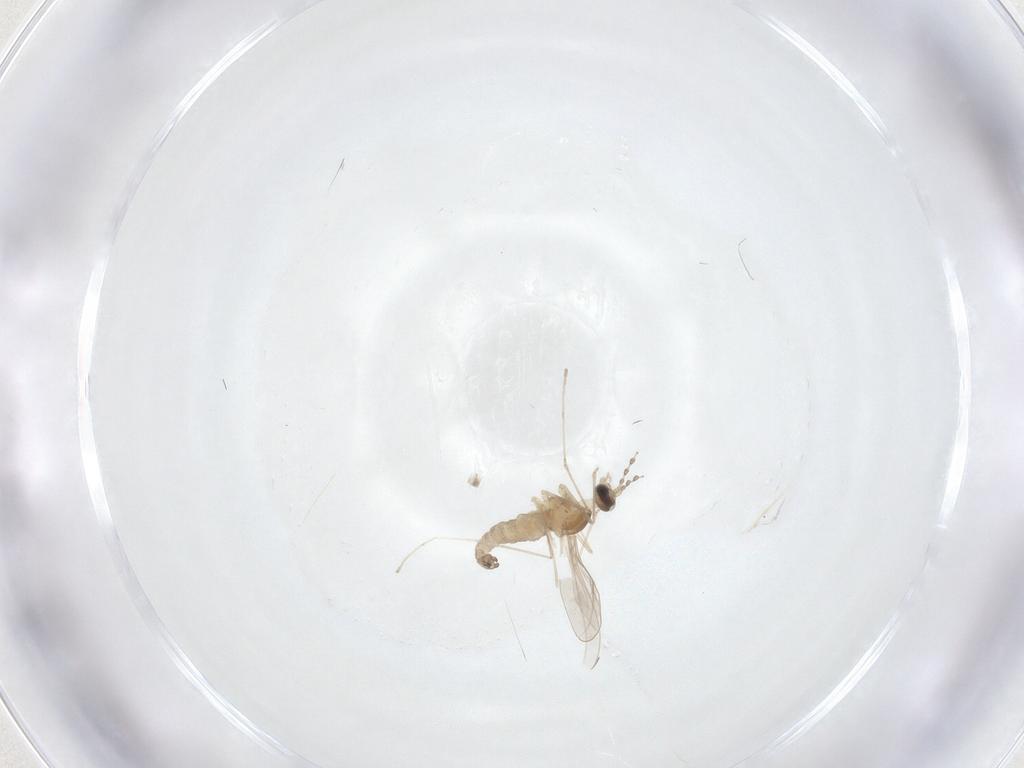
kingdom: Animalia
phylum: Arthropoda
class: Insecta
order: Diptera
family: Cecidomyiidae
